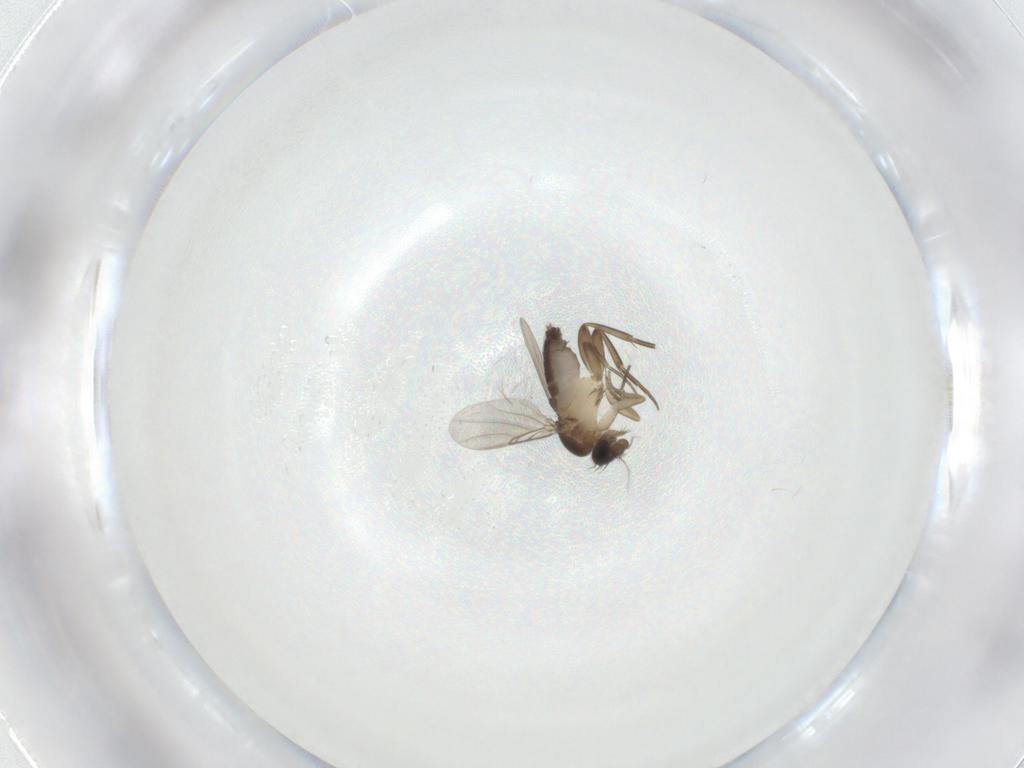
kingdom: Animalia
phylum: Arthropoda
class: Insecta
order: Diptera
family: Phoridae
